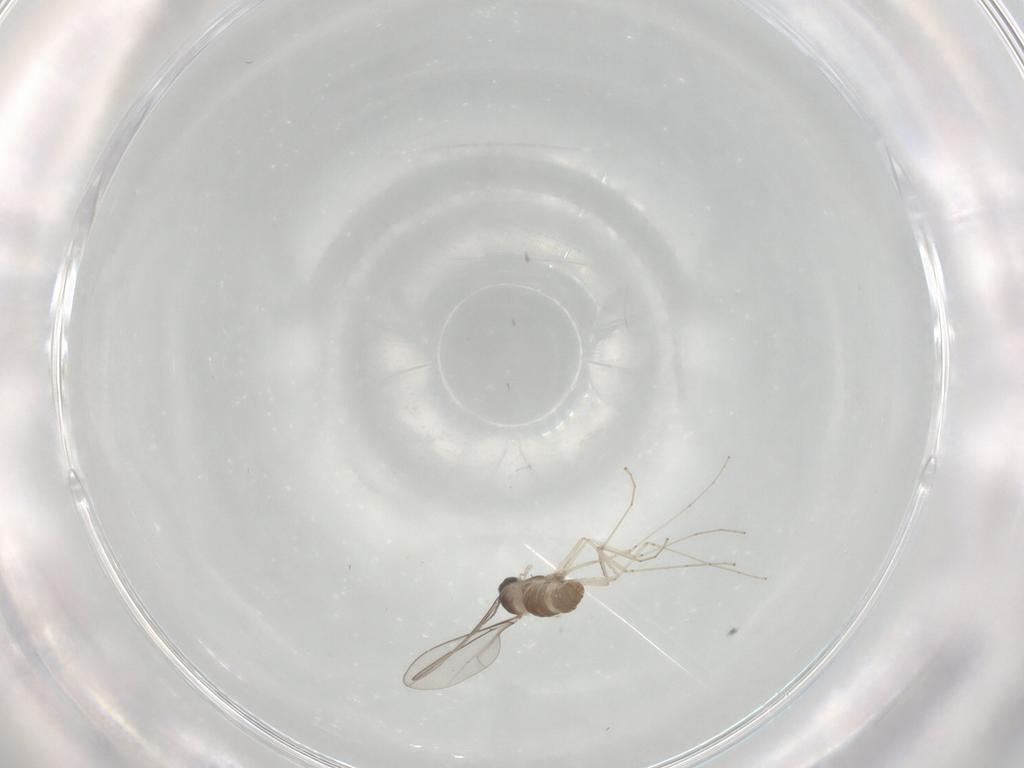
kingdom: Animalia
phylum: Arthropoda
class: Insecta
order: Diptera
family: Cecidomyiidae
